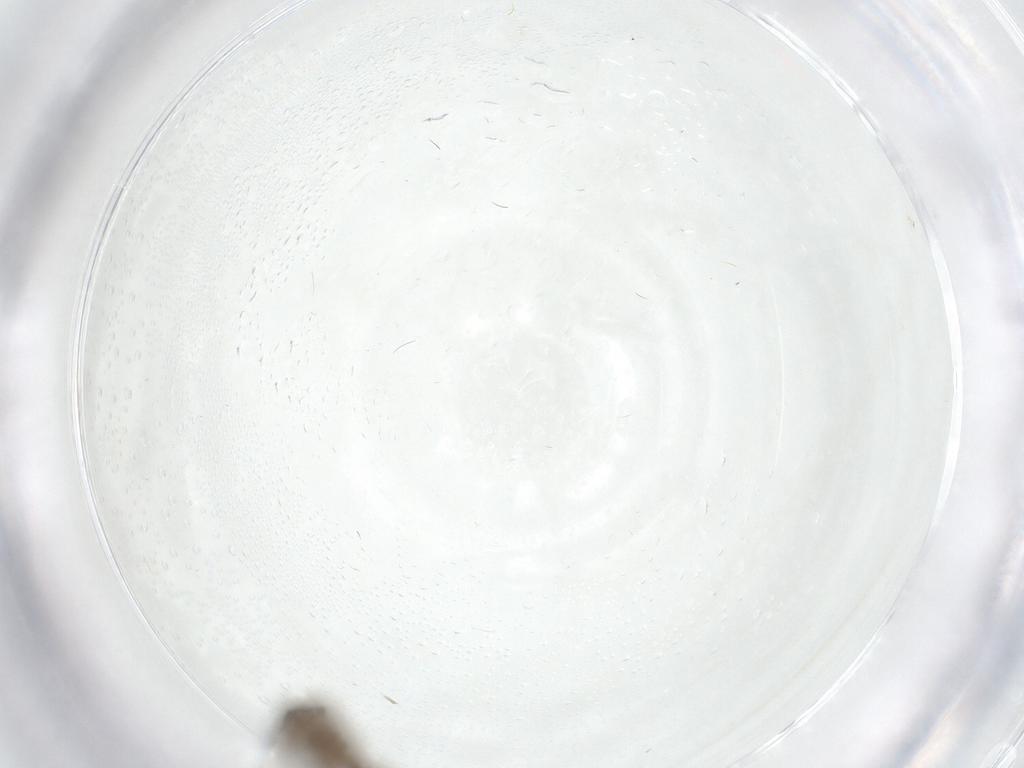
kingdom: Animalia
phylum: Arthropoda
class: Insecta
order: Diptera
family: Phoridae
